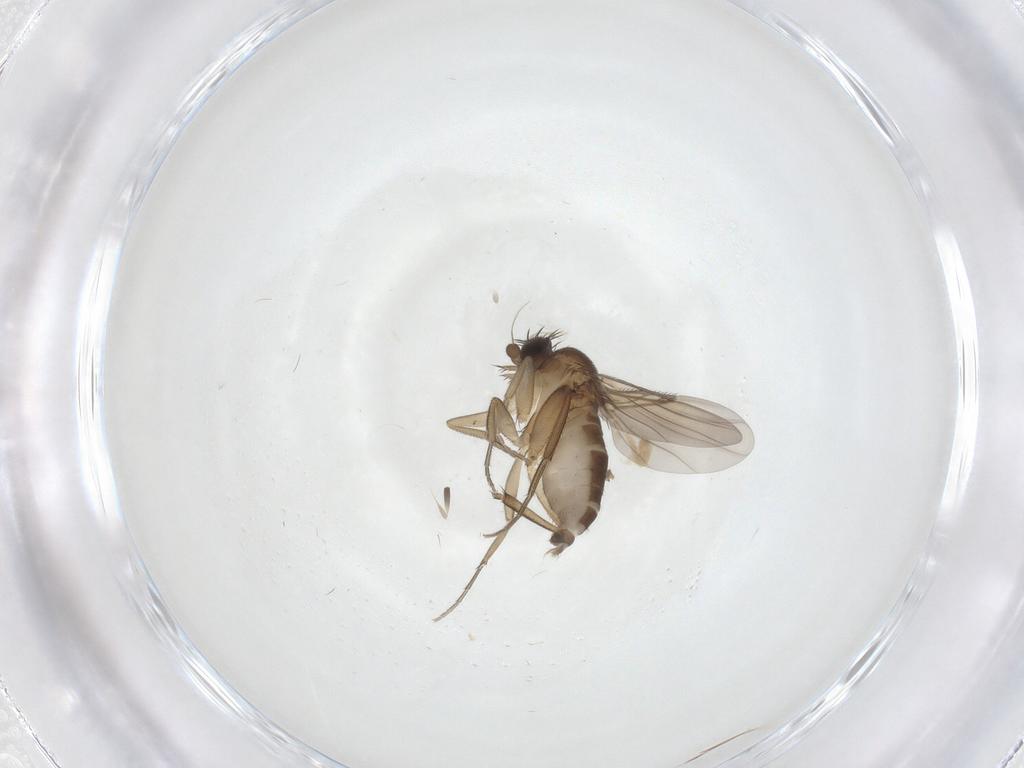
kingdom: Animalia
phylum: Arthropoda
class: Insecta
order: Diptera
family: Phoridae
